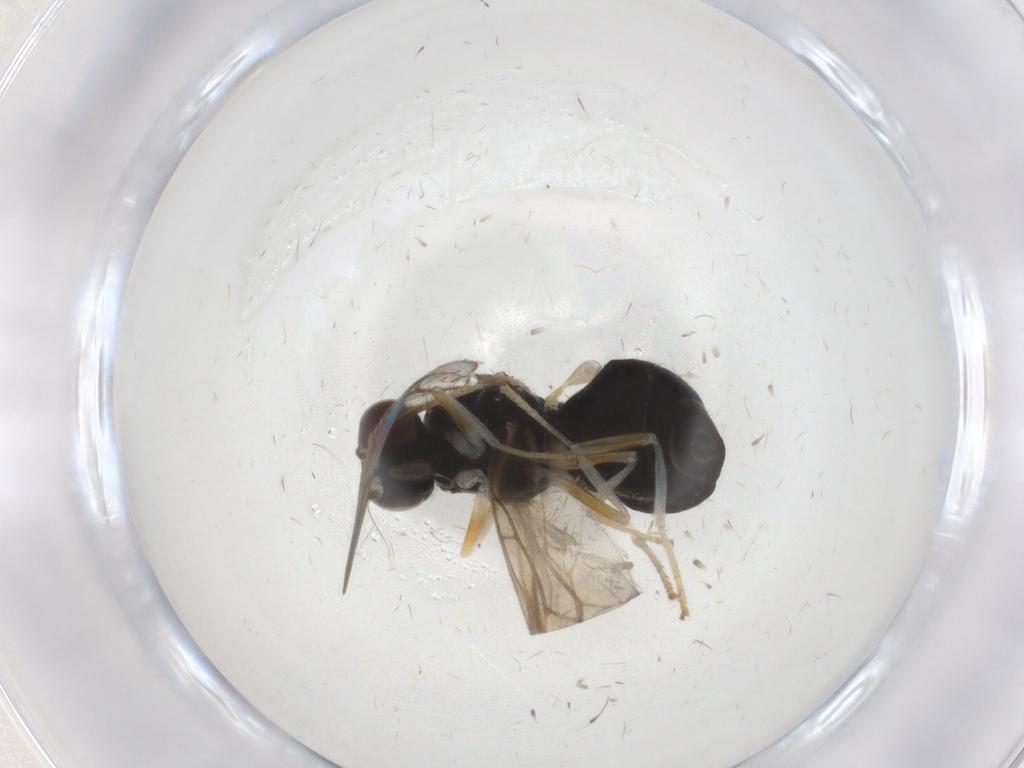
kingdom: Animalia
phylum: Arthropoda
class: Insecta
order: Diptera
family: Stratiomyidae
